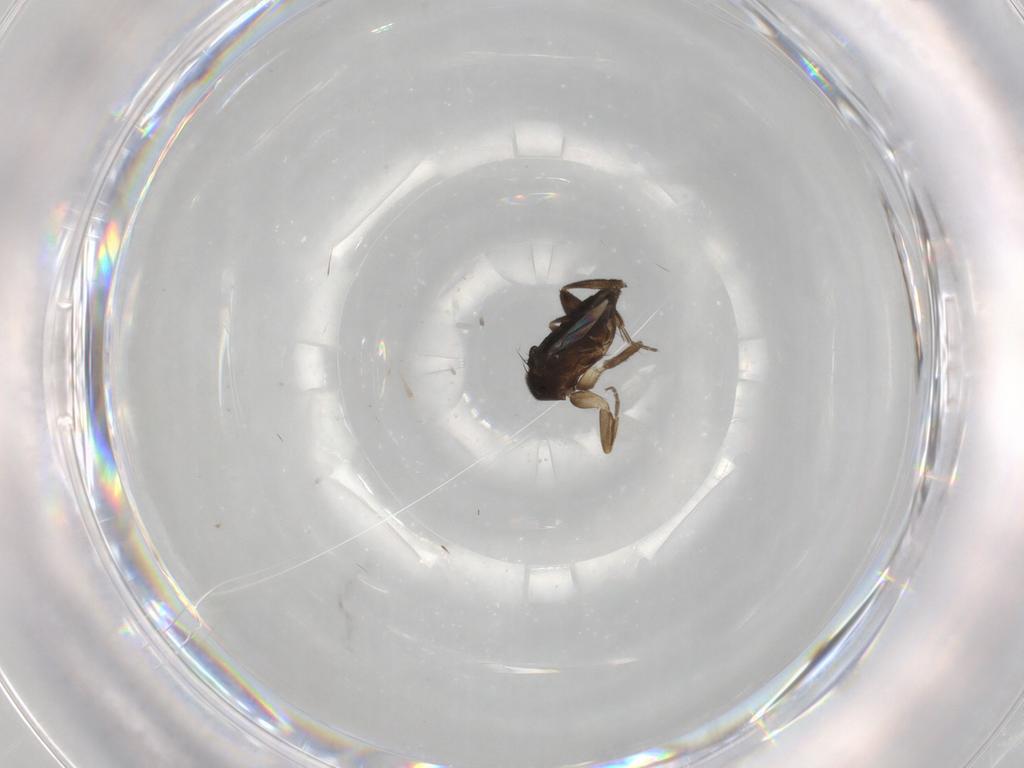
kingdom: Animalia
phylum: Arthropoda
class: Insecta
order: Diptera
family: Phoridae
